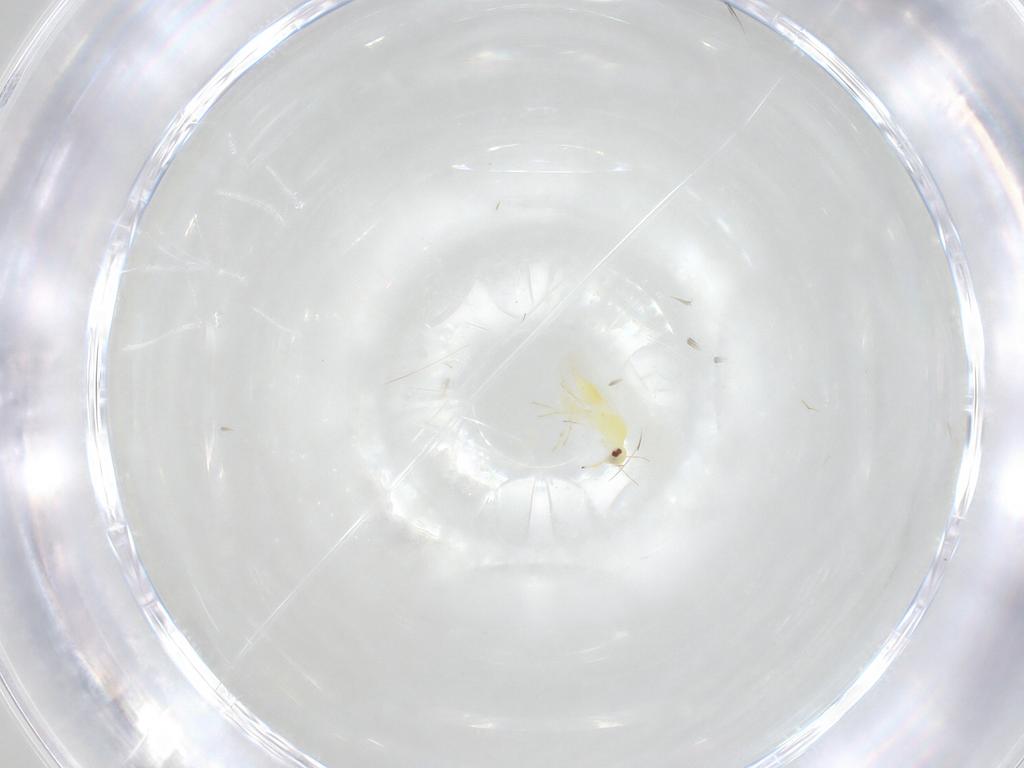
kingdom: Animalia
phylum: Arthropoda
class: Insecta
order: Hemiptera
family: Aleyrodidae
